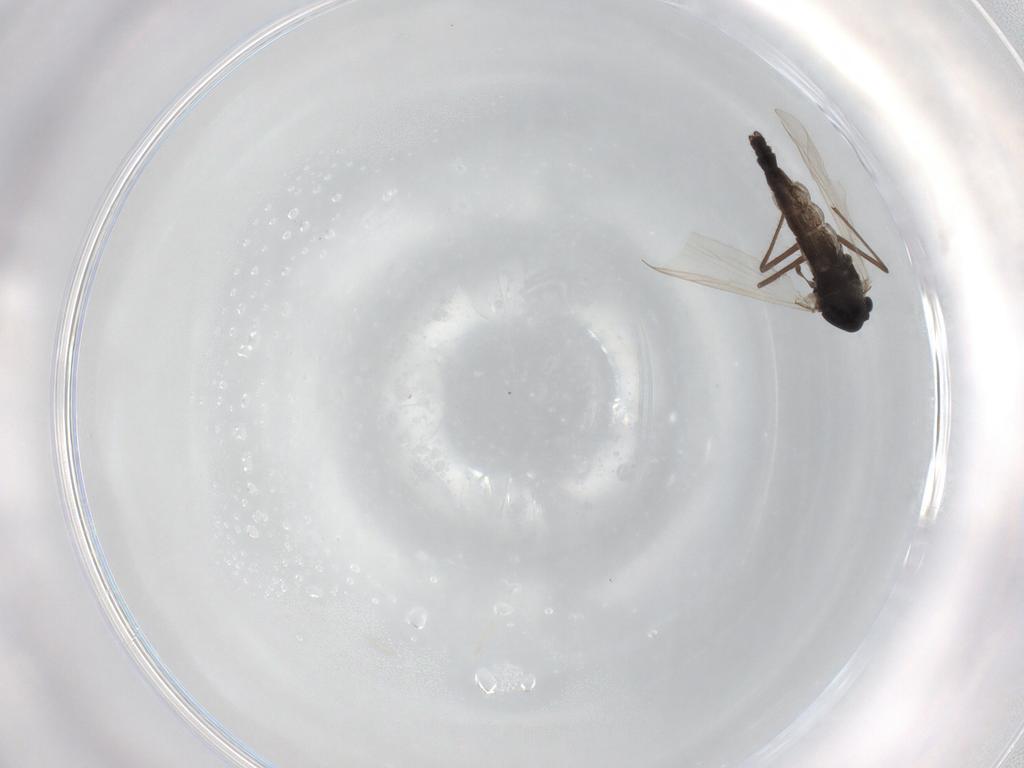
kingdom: Animalia
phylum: Arthropoda
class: Insecta
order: Diptera
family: Chironomidae
